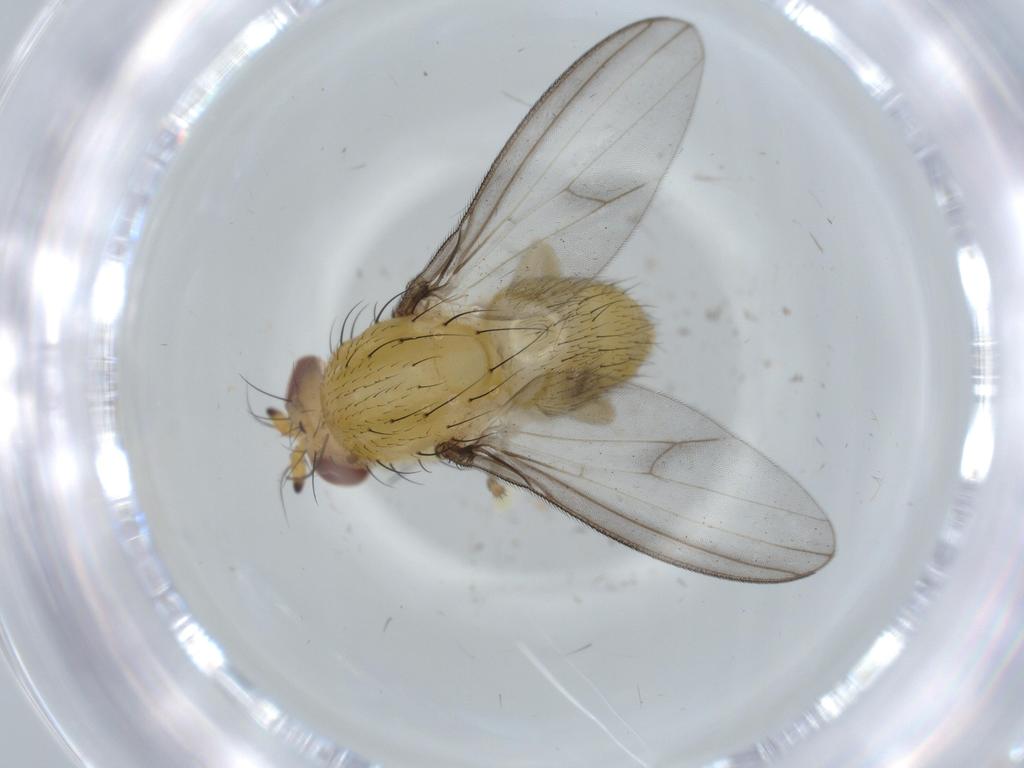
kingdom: Animalia
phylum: Arthropoda
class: Insecta
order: Diptera
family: Lauxaniidae
